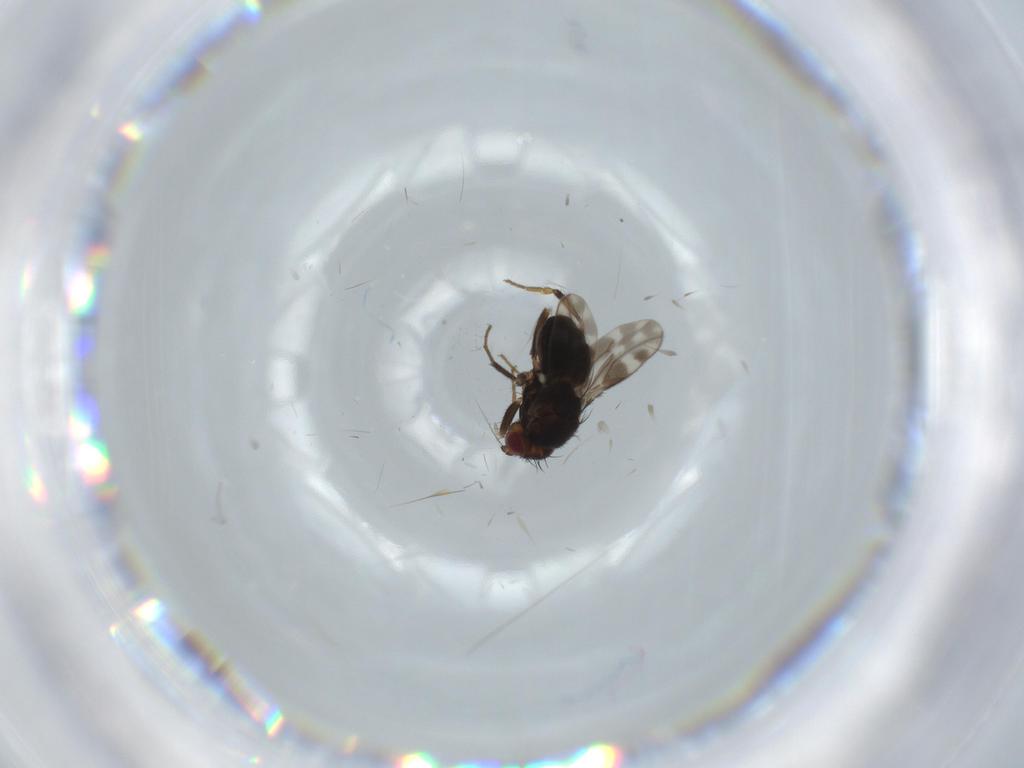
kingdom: Animalia
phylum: Arthropoda
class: Insecta
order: Diptera
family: Sphaeroceridae
